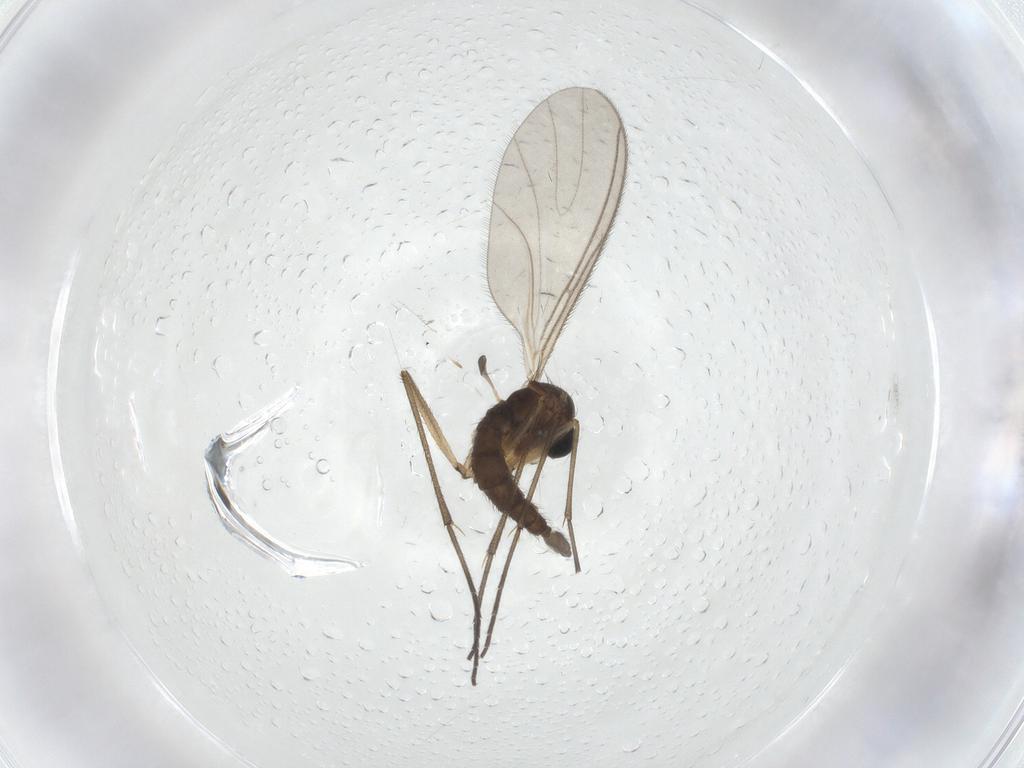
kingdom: Animalia
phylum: Arthropoda
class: Insecta
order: Diptera
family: Sciaridae
